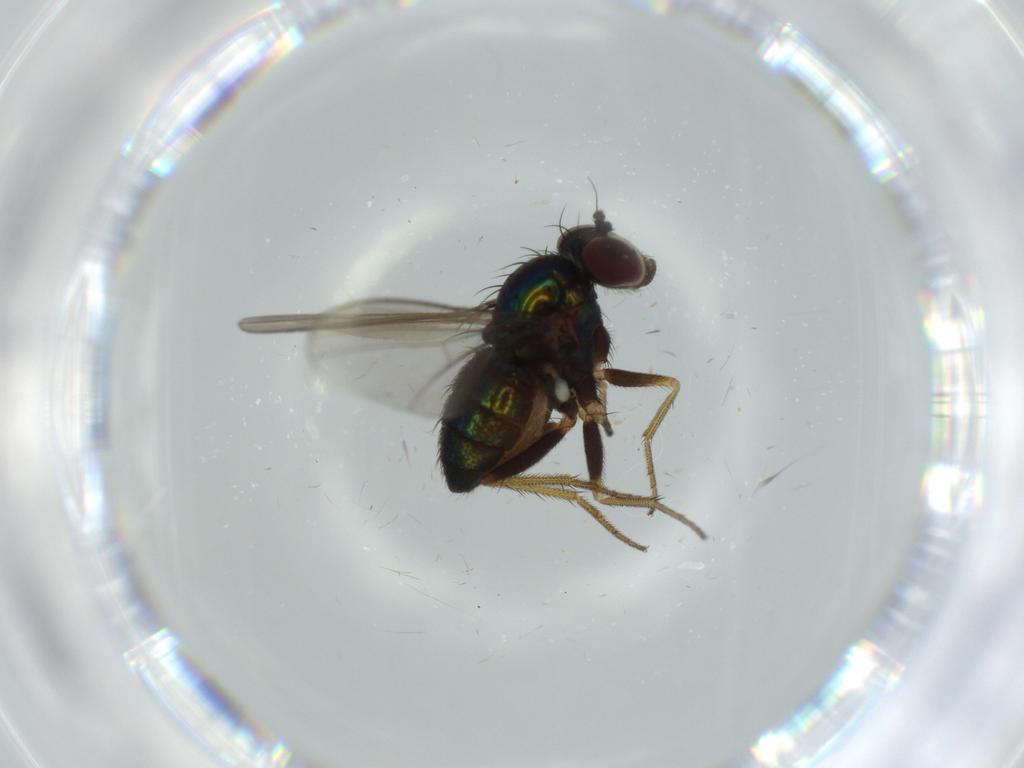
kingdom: Animalia
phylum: Arthropoda
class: Insecta
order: Diptera
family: Dolichopodidae
